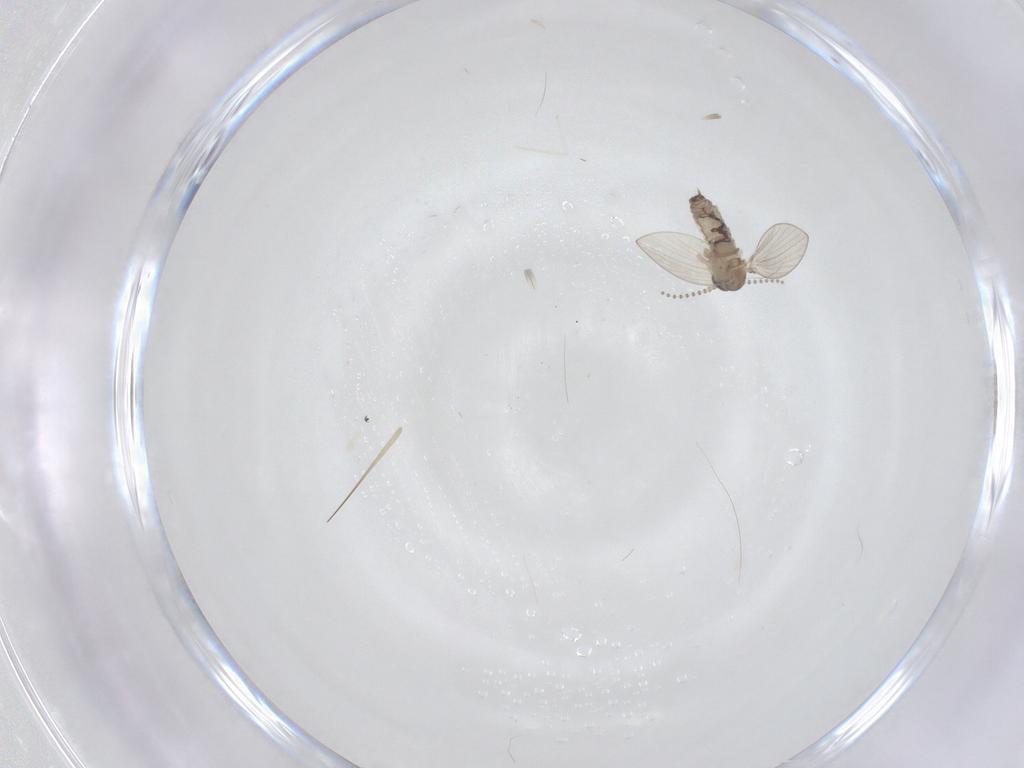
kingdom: Animalia
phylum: Arthropoda
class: Insecta
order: Diptera
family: Psychodidae
